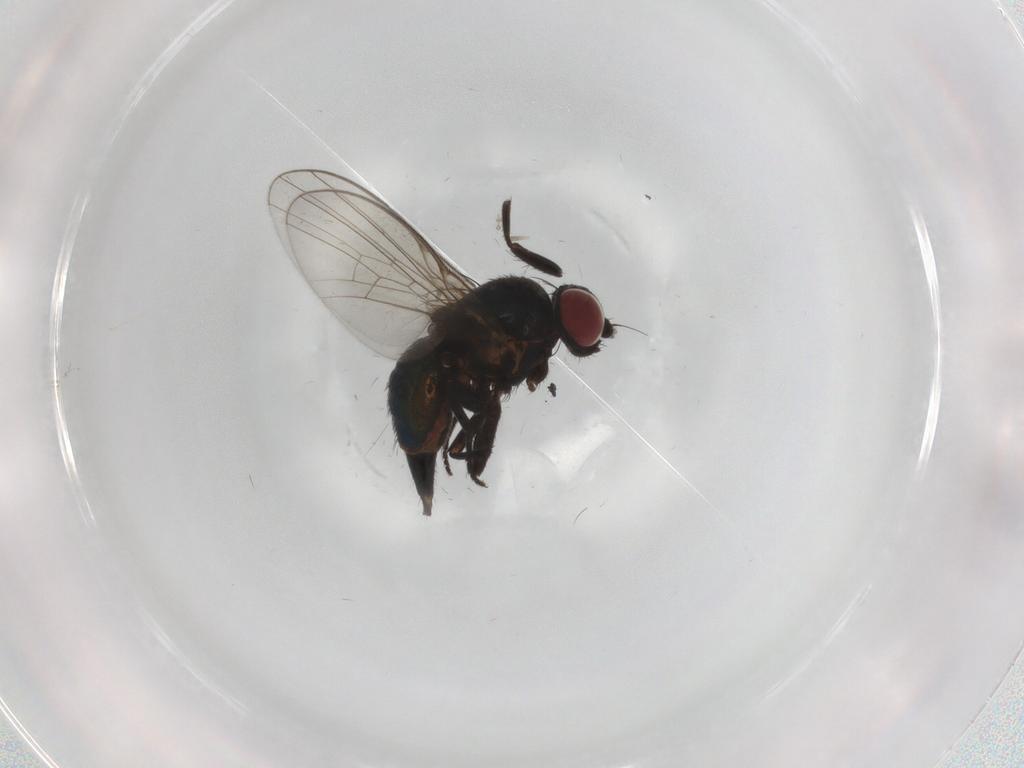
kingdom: Animalia
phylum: Arthropoda
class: Insecta
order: Diptera
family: Agromyzidae
